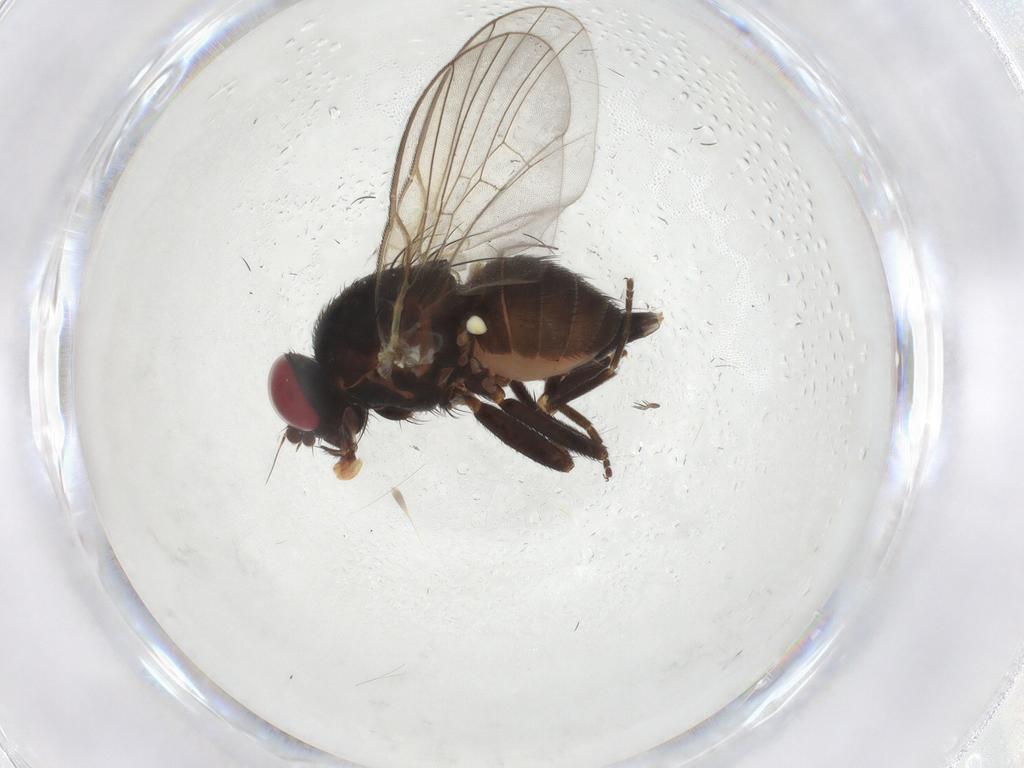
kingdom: Animalia
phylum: Arthropoda
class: Insecta
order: Diptera
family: Agromyzidae
